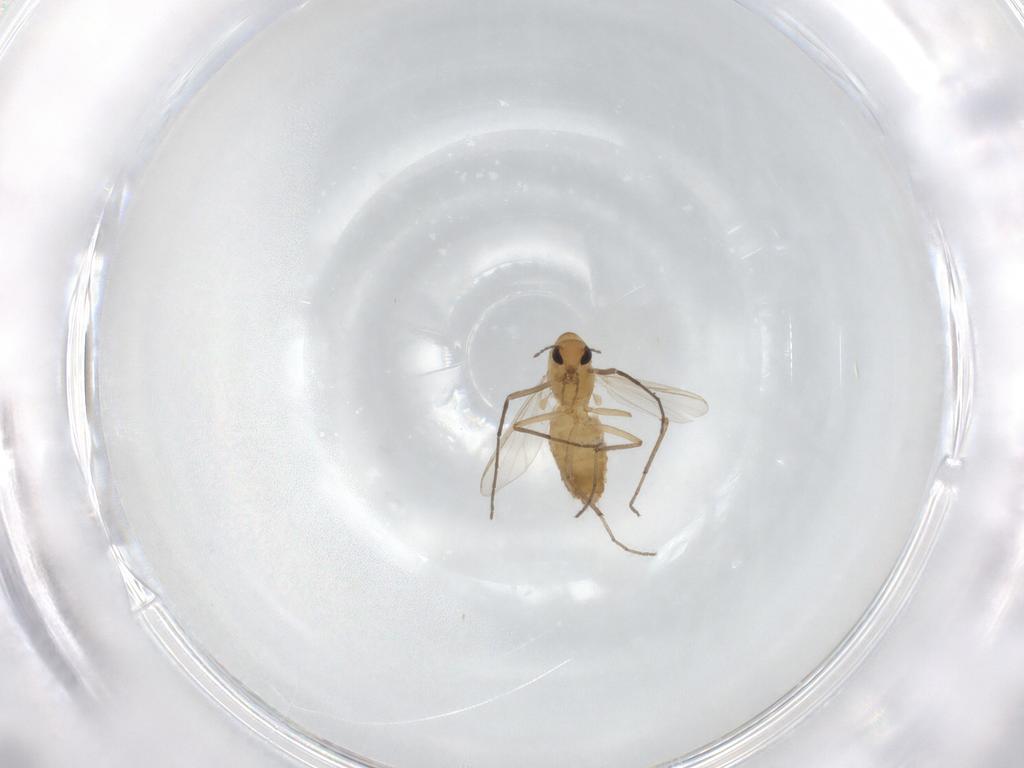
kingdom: Animalia
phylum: Arthropoda
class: Insecta
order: Diptera
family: Chironomidae
